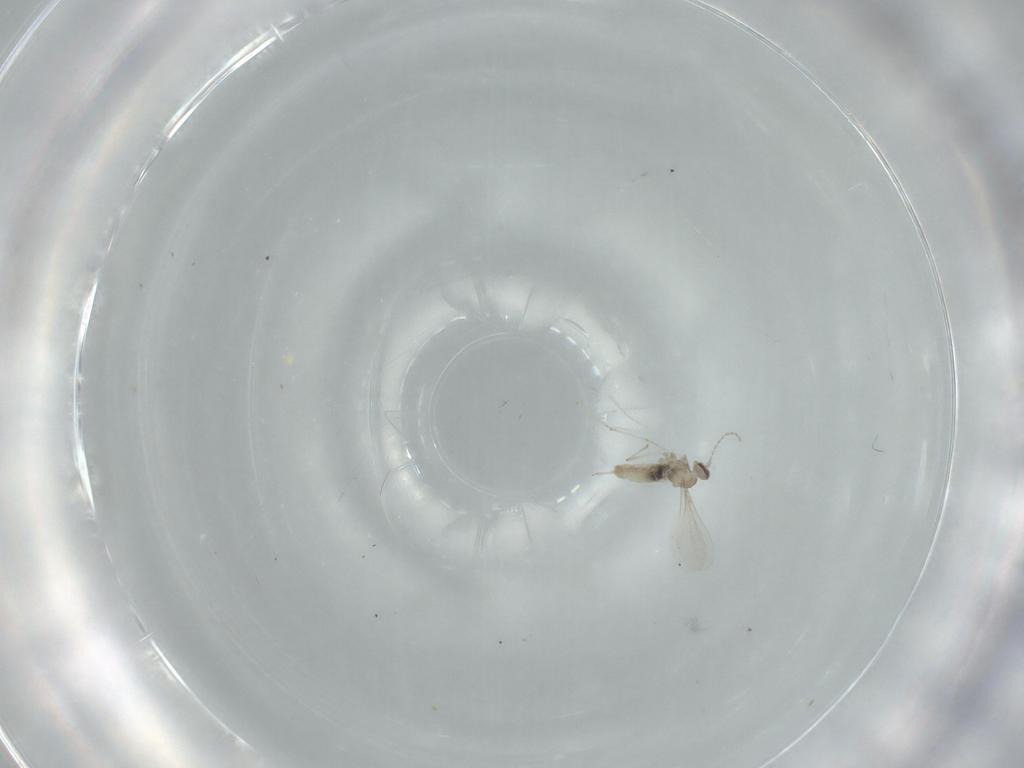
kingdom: Animalia
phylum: Arthropoda
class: Insecta
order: Diptera
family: Cecidomyiidae
